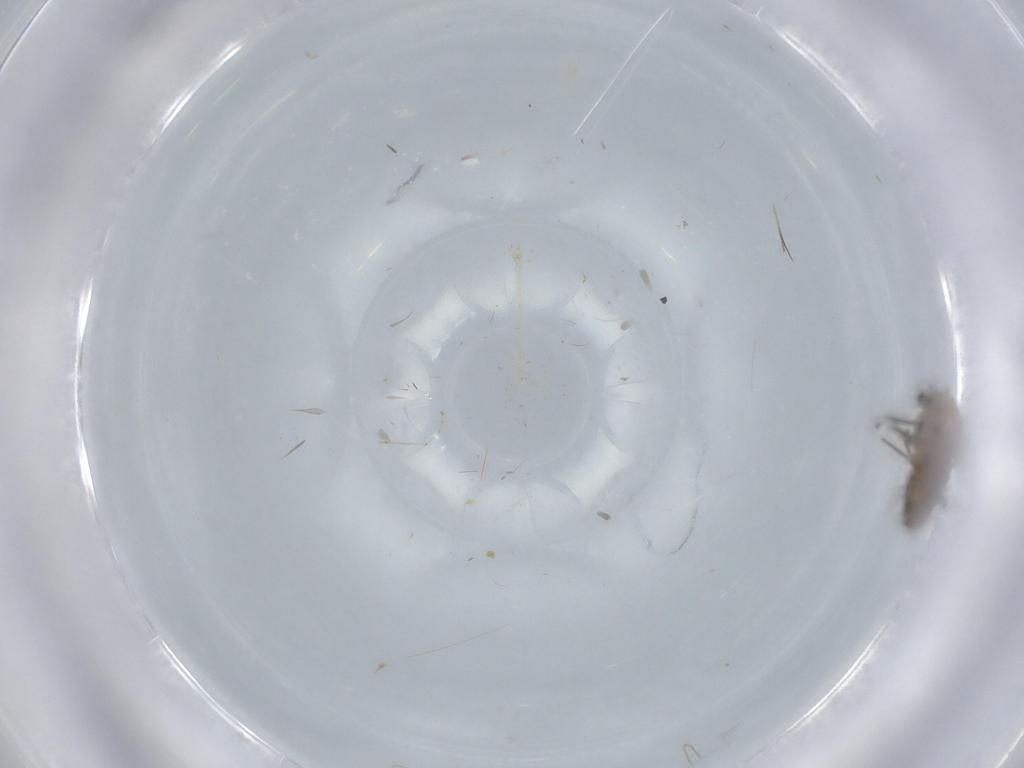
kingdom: Animalia
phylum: Arthropoda
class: Insecta
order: Diptera
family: Cecidomyiidae
